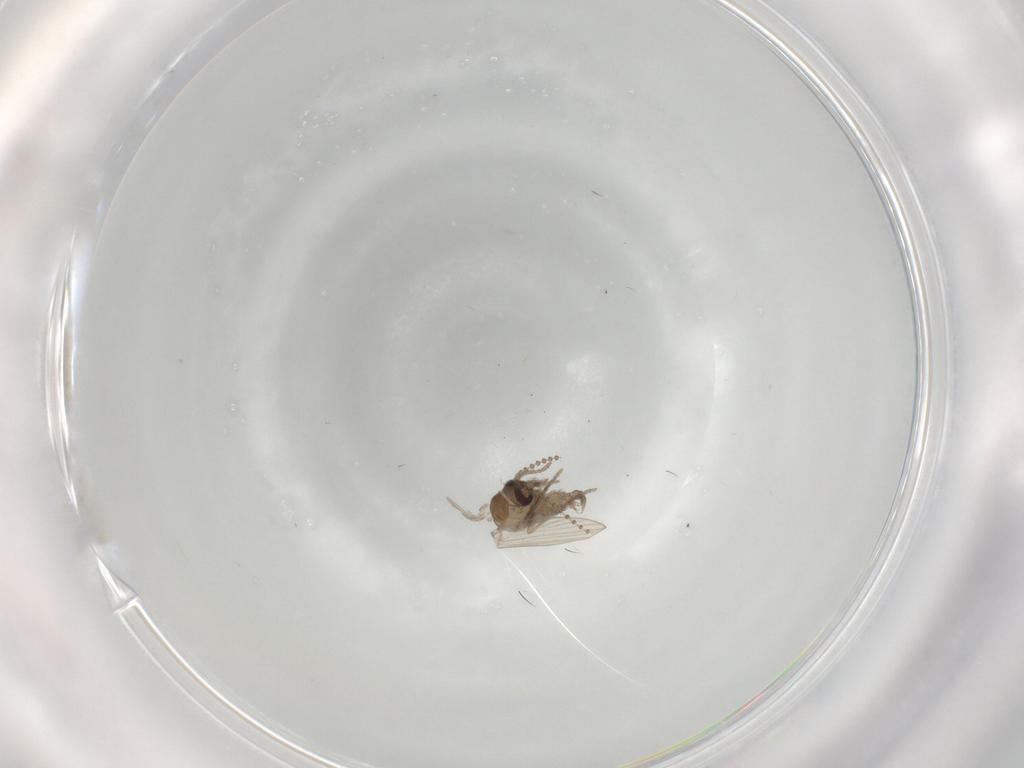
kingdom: Animalia
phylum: Arthropoda
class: Insecta
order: Diptera
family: Psychodidae
